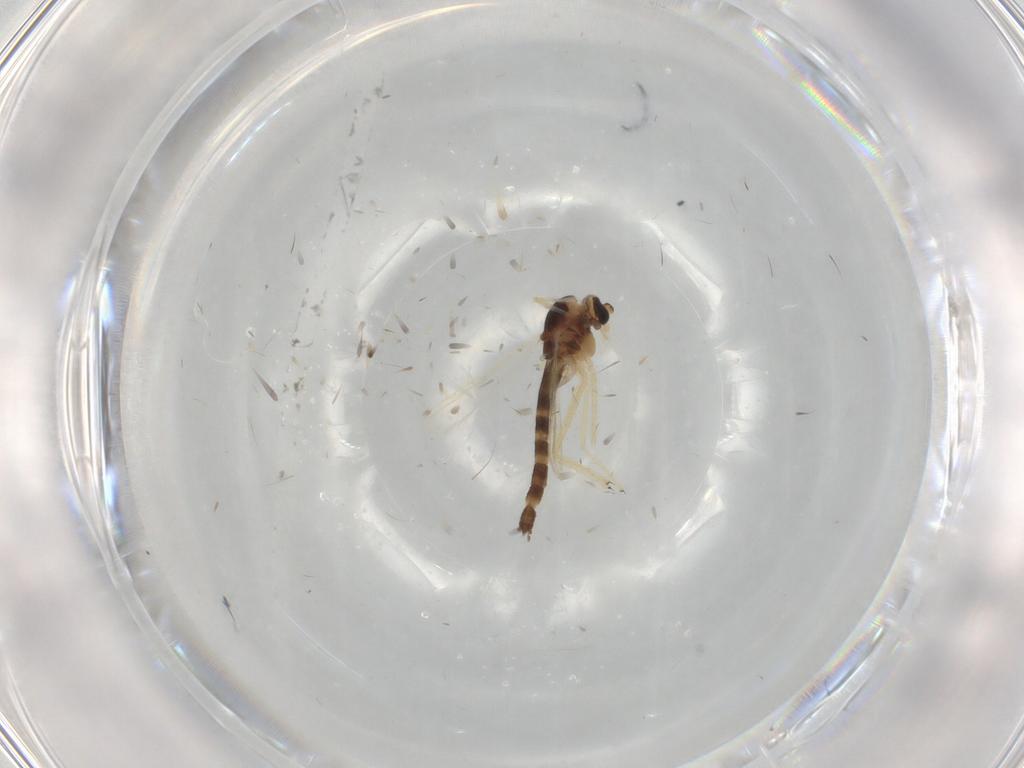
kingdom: Animalia
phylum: Arthropoda
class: Insecta
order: Diptera
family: Chironomidae
